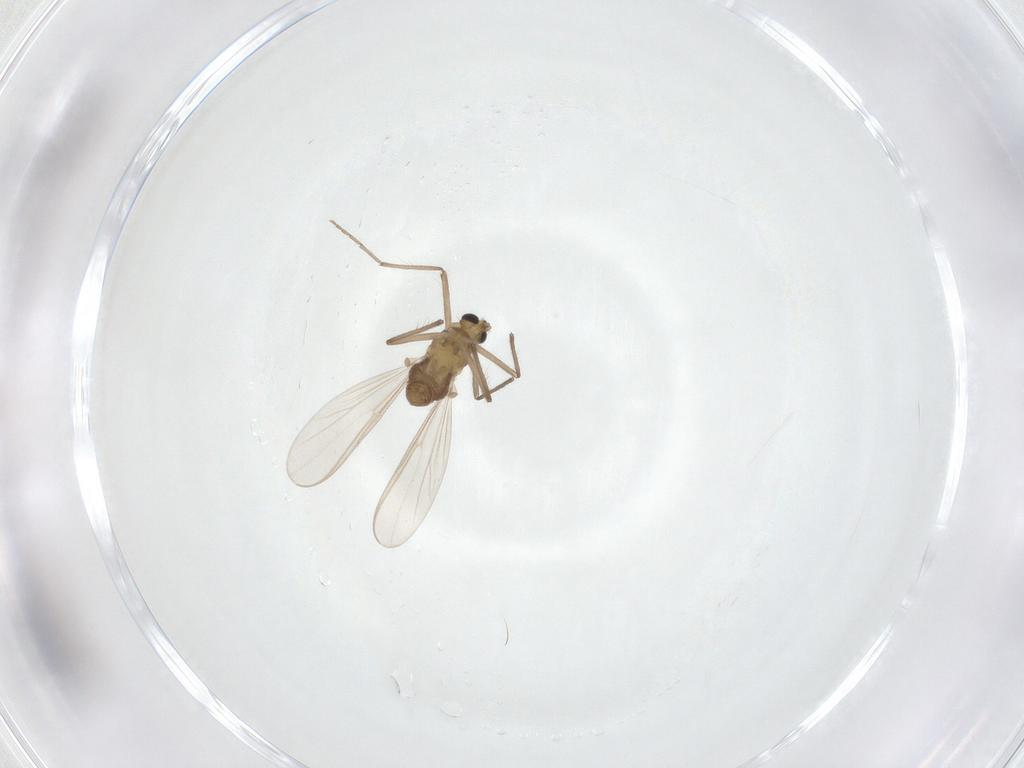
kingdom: Animalia
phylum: Arthropoda
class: Insecta
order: Diptera
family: Chironomidae
